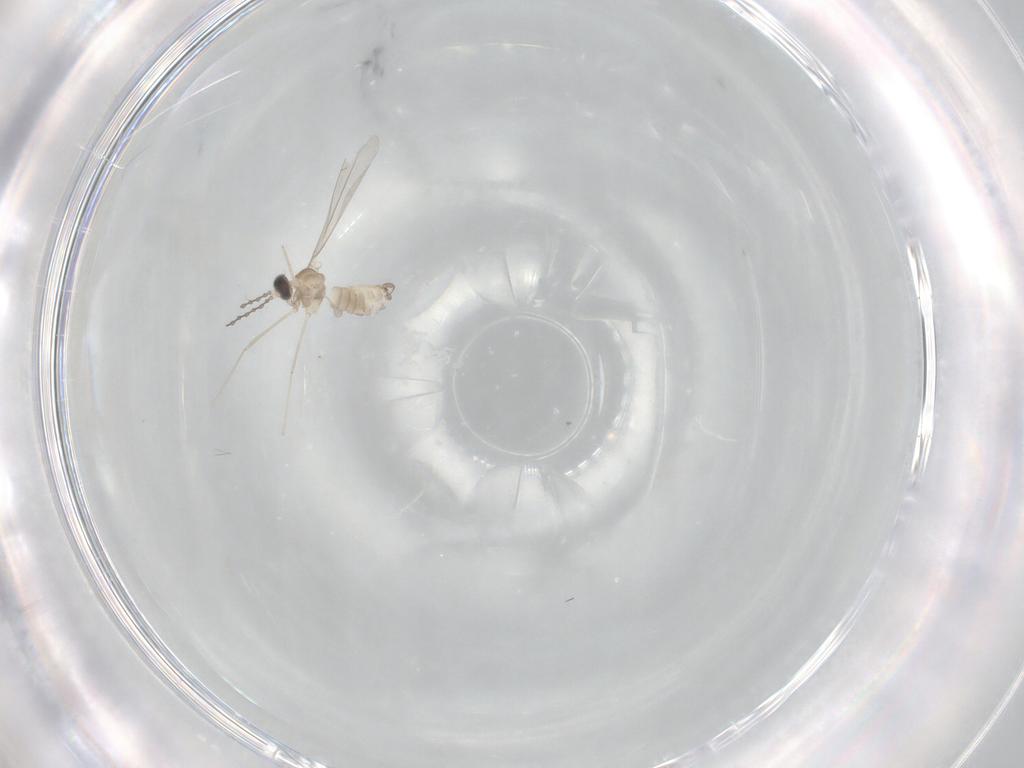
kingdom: Animalia
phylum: Arthropoda
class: Insecta
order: Diptera
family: Cecidomyiidae
